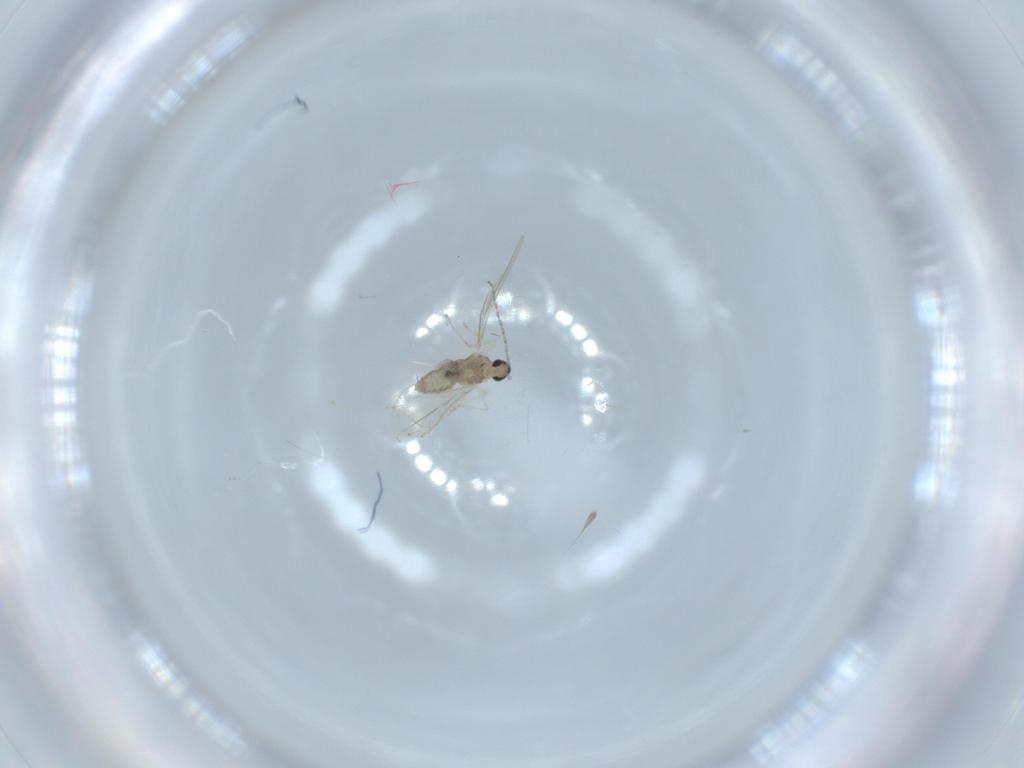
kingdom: Animalia
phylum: Arthropoda
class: Insecta
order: Diptera
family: Cecidomyiidae
